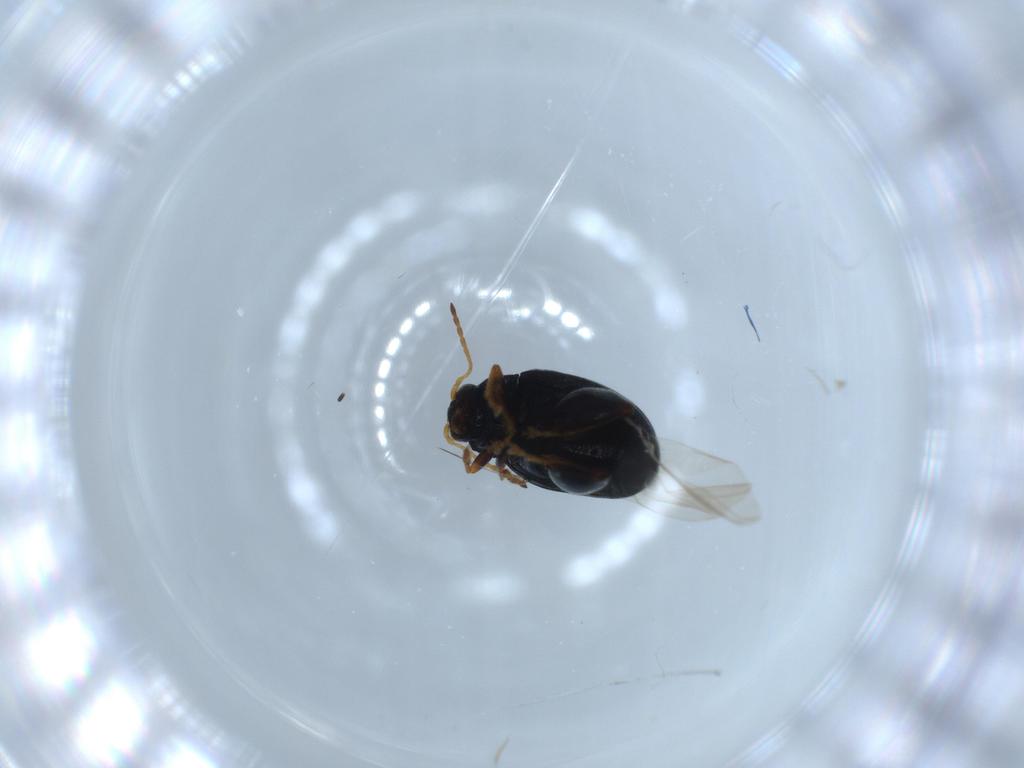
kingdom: Animalia
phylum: Arthropoda
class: Insecta
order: Coleoptera
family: Chrysomelidae
